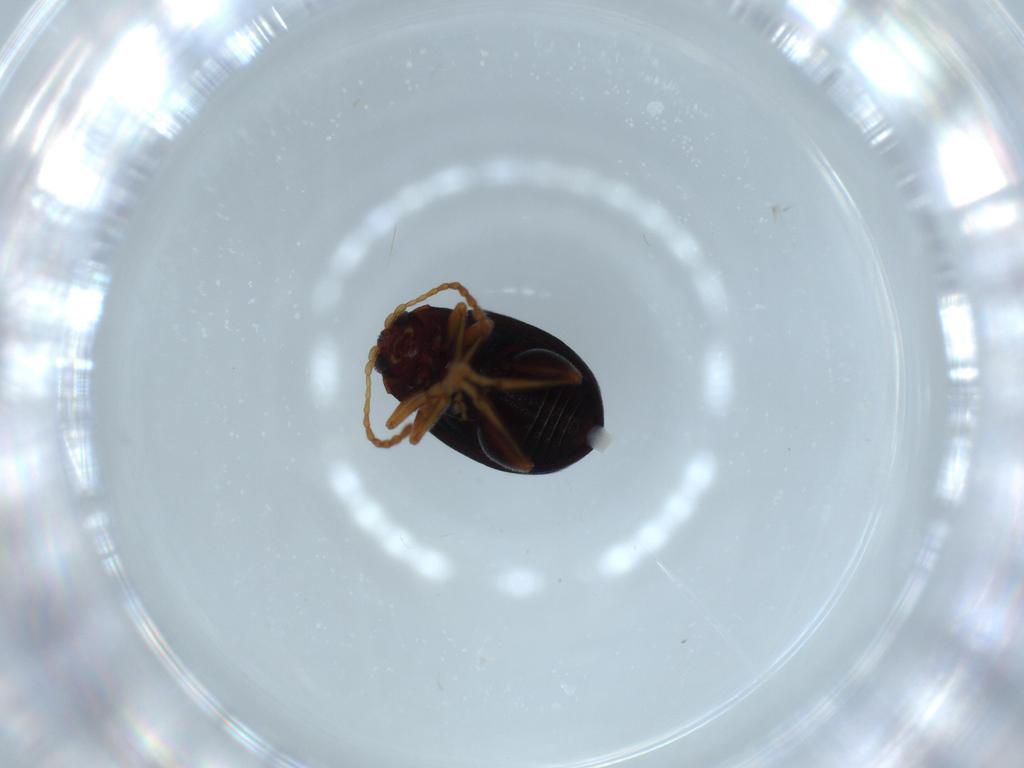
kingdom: Animalia
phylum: Arthropoda
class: Insecta
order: Coleoptera
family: Chrysomelidae
